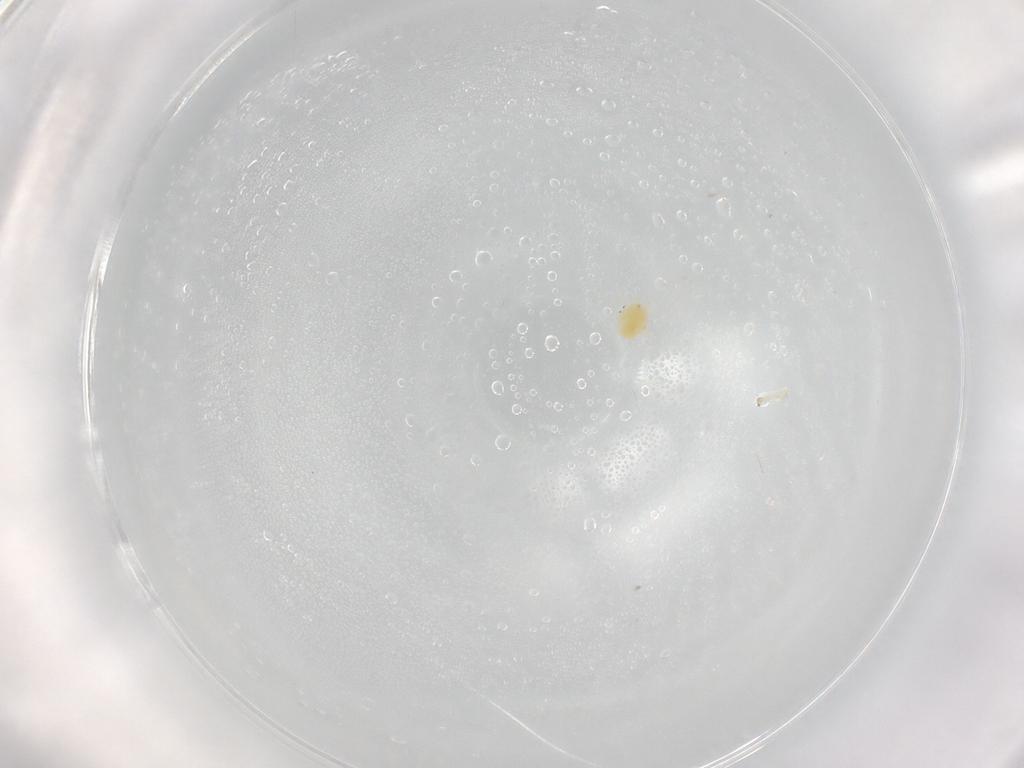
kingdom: Animalia
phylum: Arthropoda
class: Arachnida
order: Trombidiformes
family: Tetranychidae
